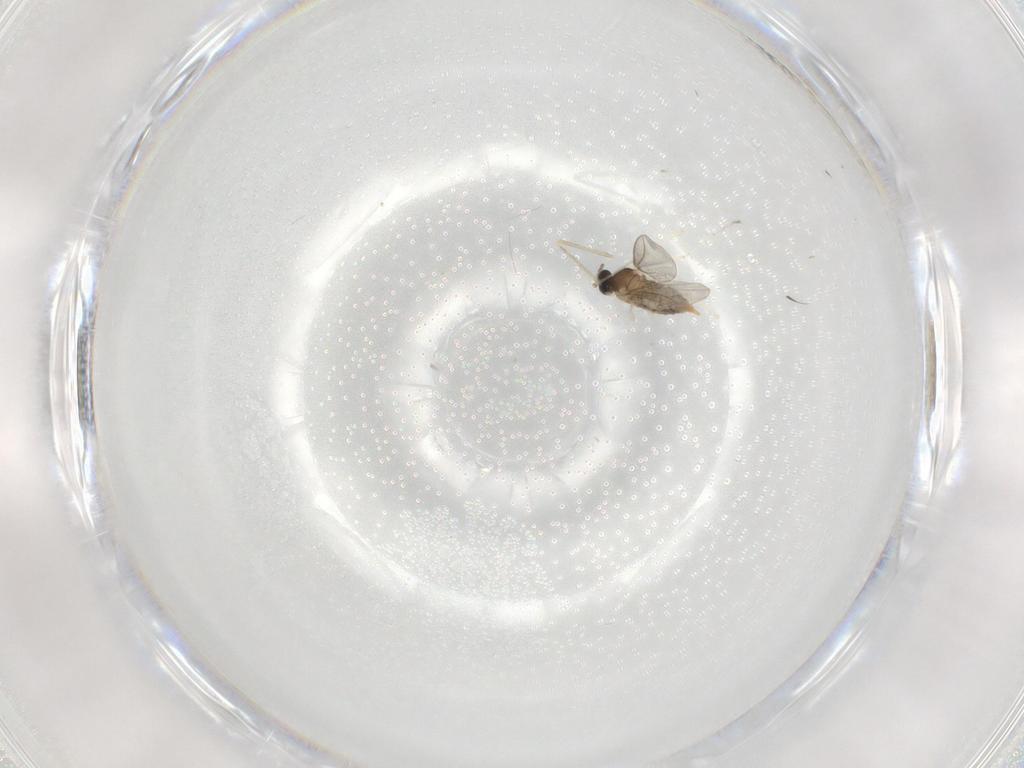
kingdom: Animalia
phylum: Arthropoda
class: Insecta
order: Diptera
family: Cecidomyiidae
